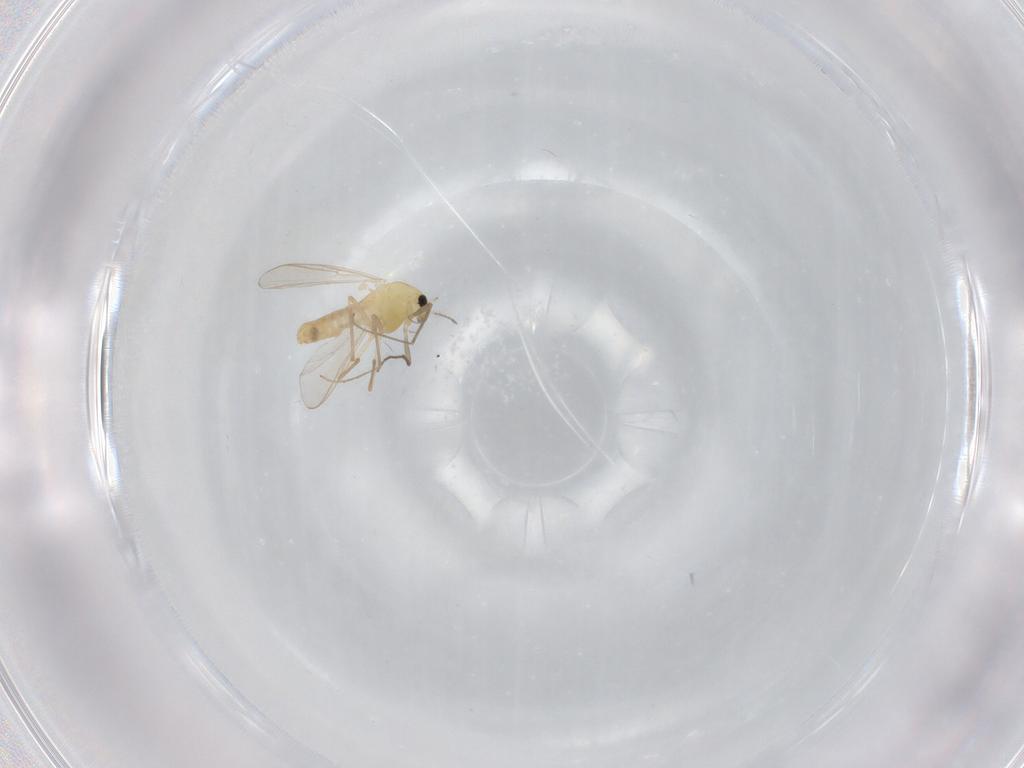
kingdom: Animalia
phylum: Arthropoda
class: Insecta
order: Diptera
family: Chironomidae
